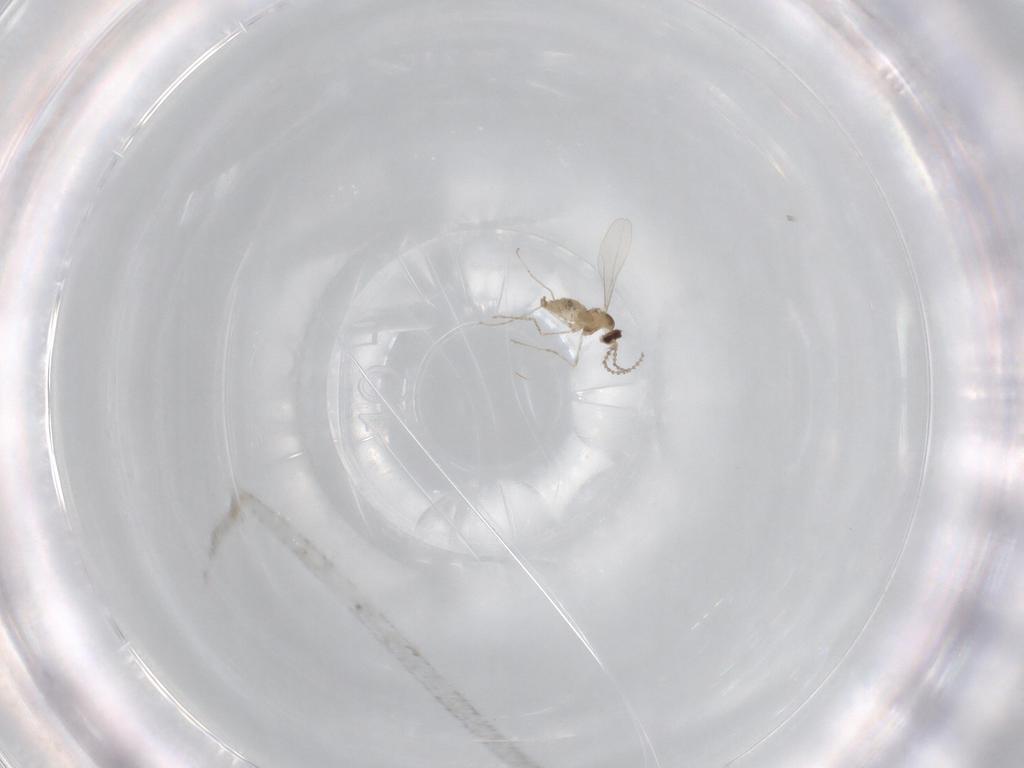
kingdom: Animalia
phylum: Arthropoda
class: Insecta
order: Diptera
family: Cecidomyiidae
